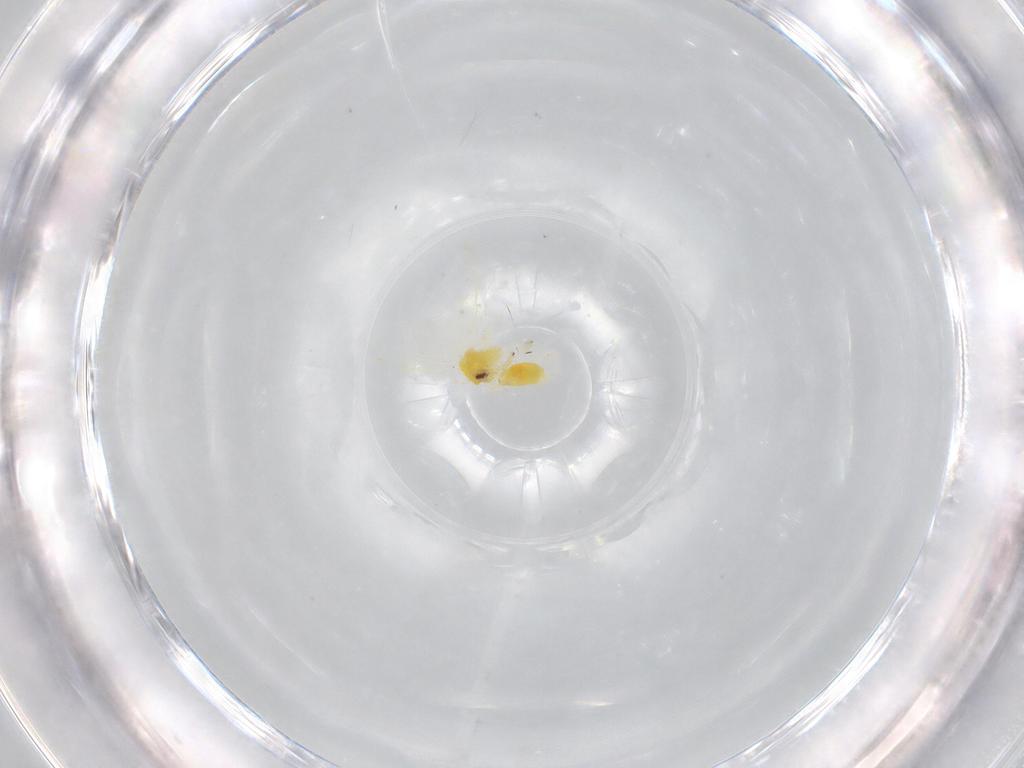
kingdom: Animalia
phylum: Arthropoda
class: Insecta
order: Hemiptera
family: Aleyrodidae
